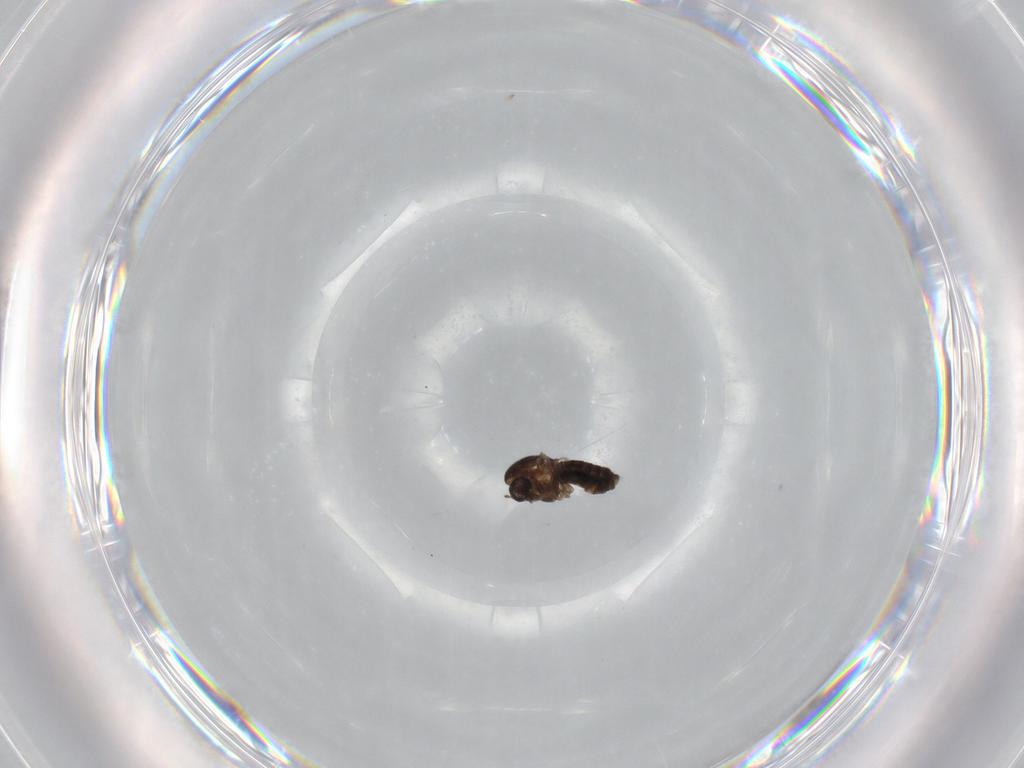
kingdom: Animalia
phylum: Arthropoda
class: Insecta
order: Diptera
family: Chironomidae
